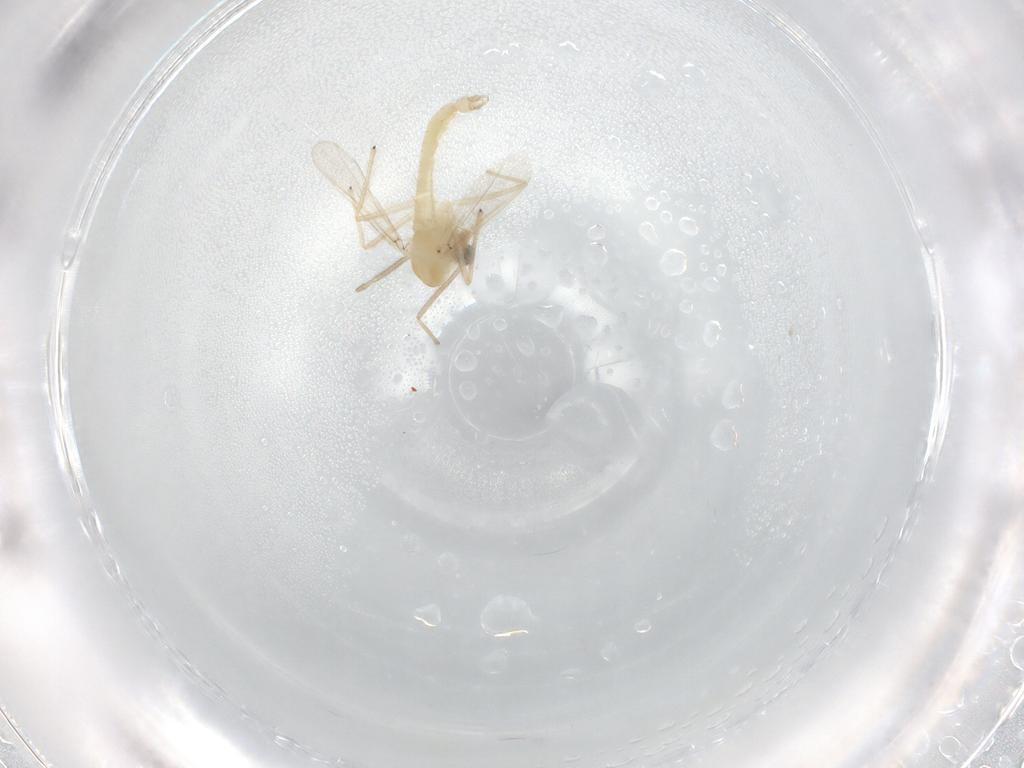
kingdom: Animalia
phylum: Arthropoda
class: Insecta
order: Diptera
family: Chironomidae
